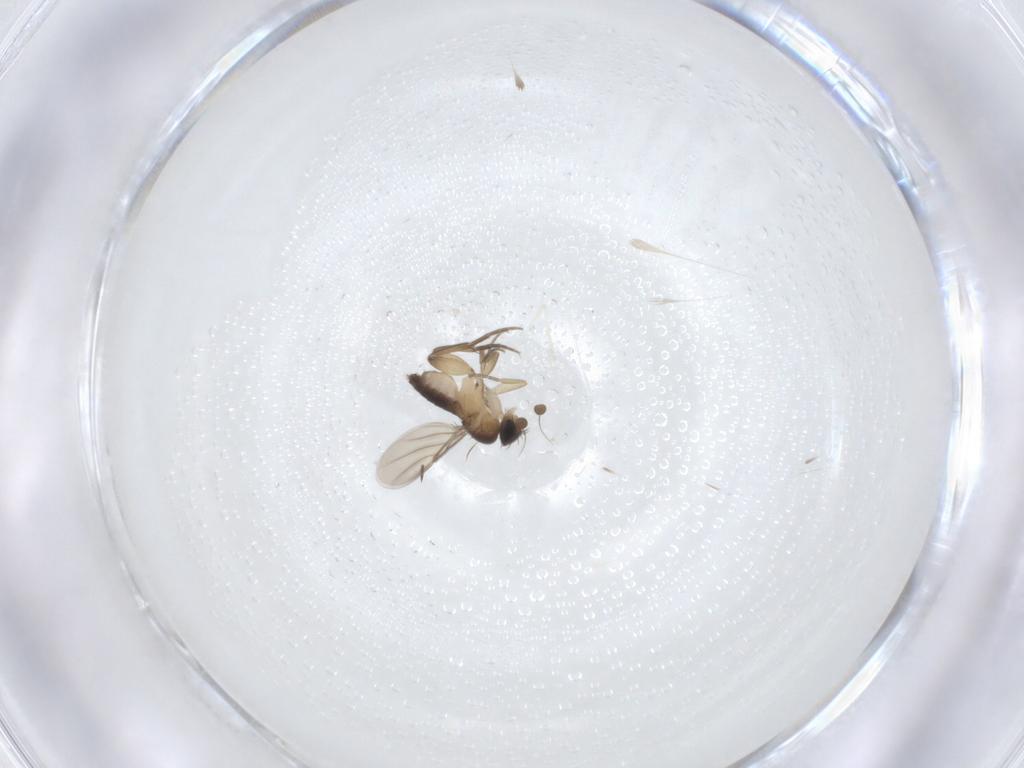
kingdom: Animalia
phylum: Arthropoda
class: Insecta
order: Diptera
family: Phoridae
